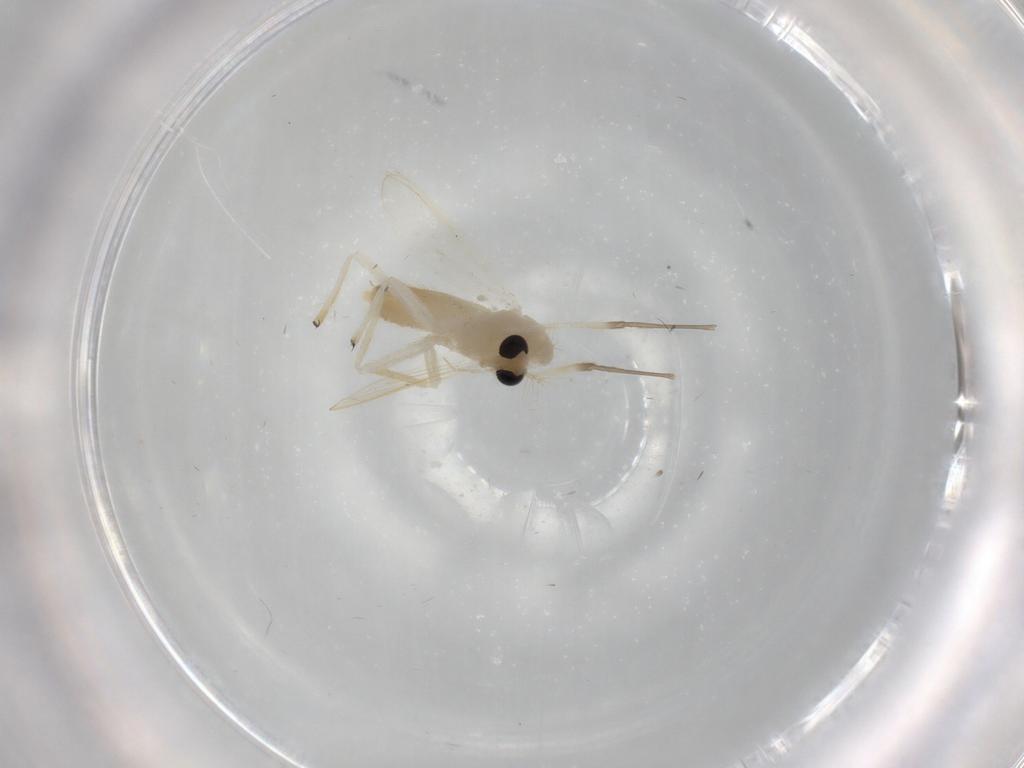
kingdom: Animalia
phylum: Arthropoda
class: Insecta
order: Diptera
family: Chironomidae
